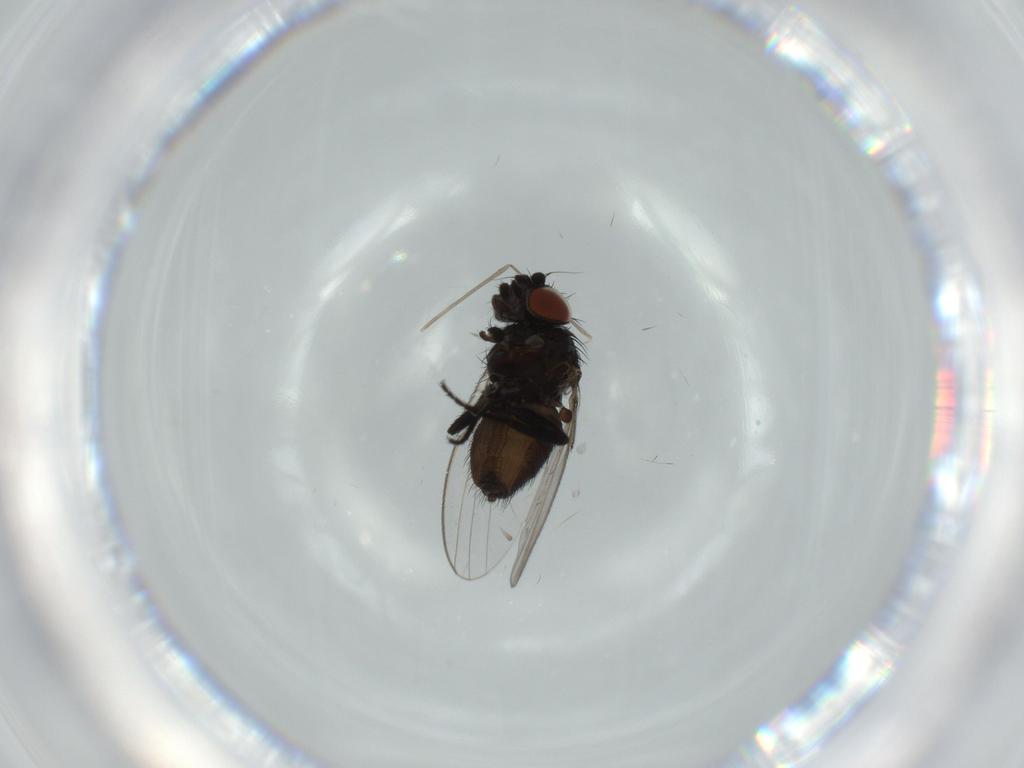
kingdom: Animalia
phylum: Arthropoda
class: Insecta
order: Diptera
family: Milichiidae
